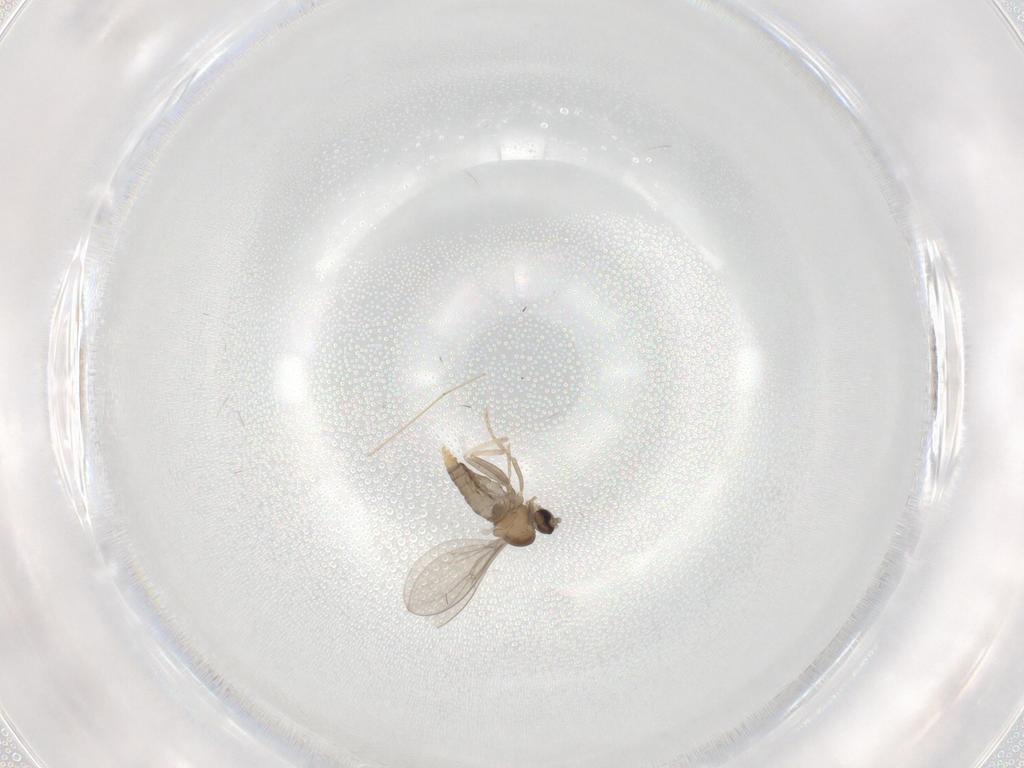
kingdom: Animalia
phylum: Arthropoda
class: Insecta
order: Diptera
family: Cecidomyiidae
